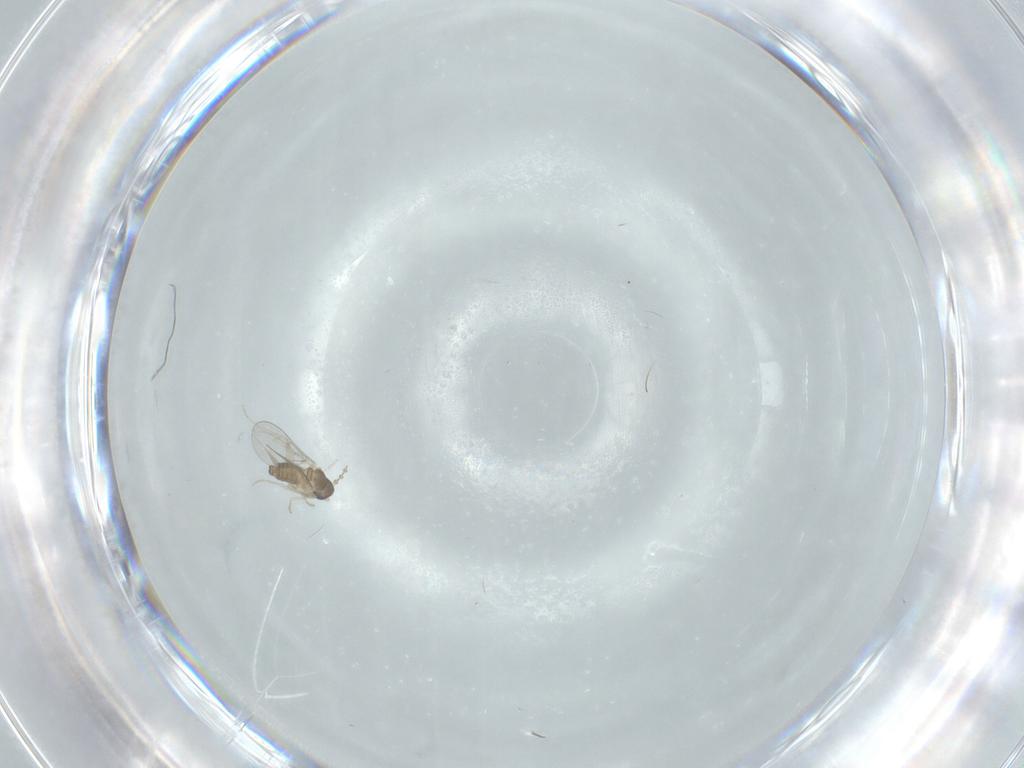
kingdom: Animalia
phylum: Arthropoda
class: Insecta
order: Diptera
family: Cecidomyiidae
